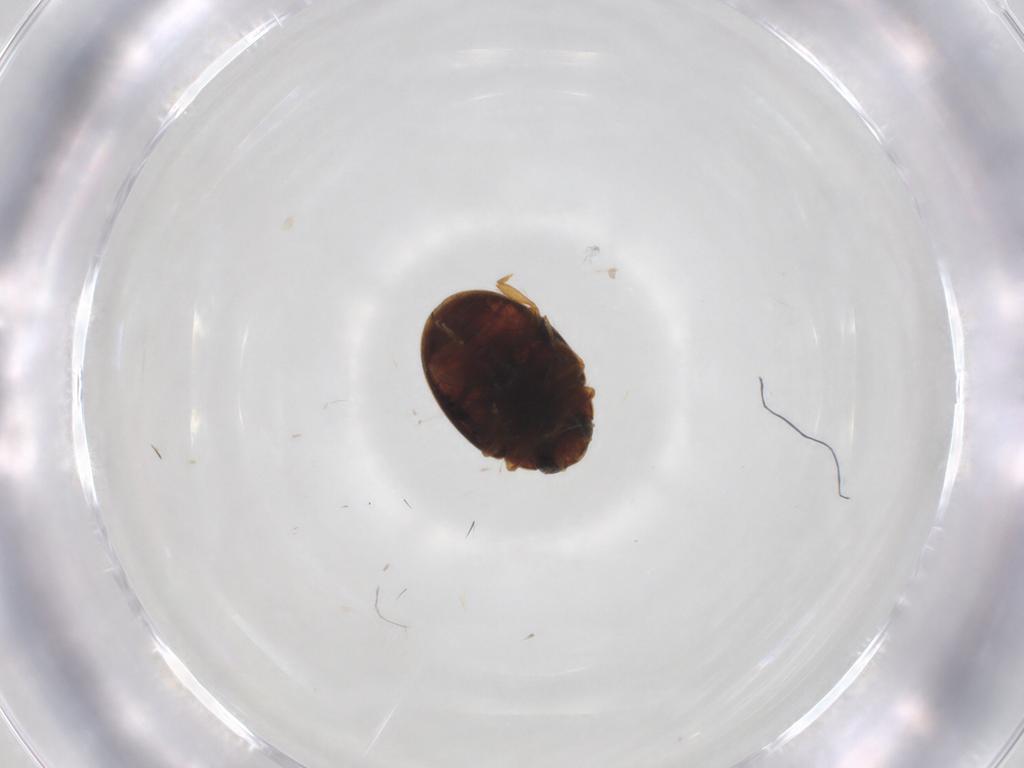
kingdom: Animalia
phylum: Arthropoda
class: Insecta
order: Coleoptera
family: Coccinellidae
